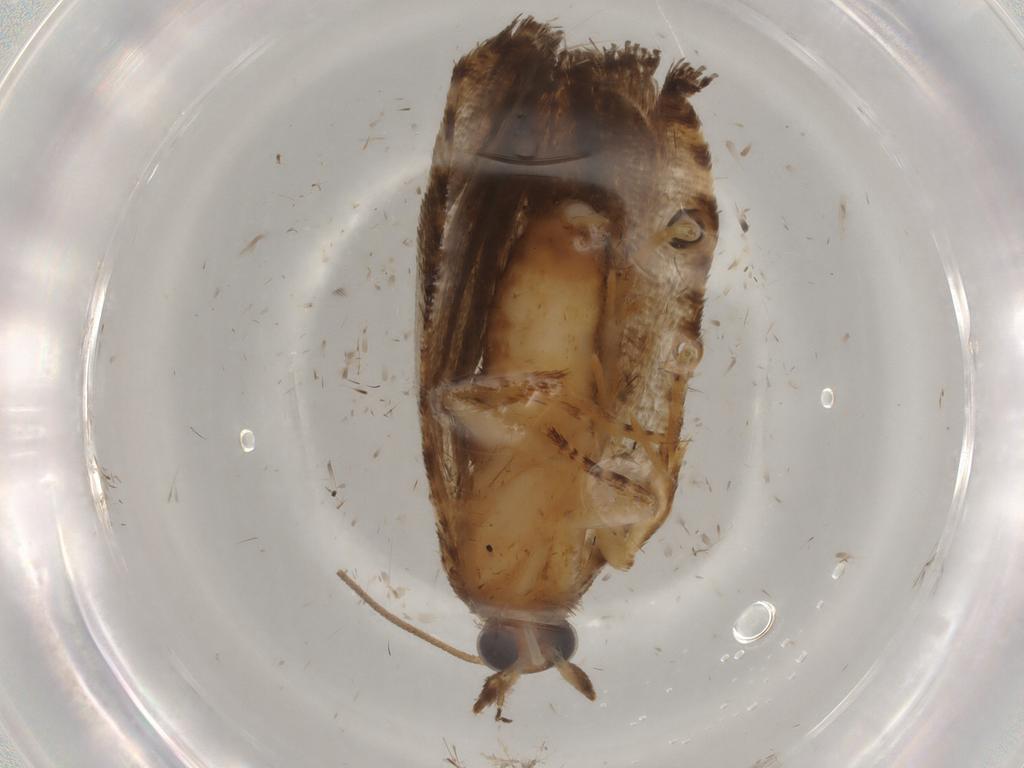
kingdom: Animalia
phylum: Arthropoda
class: Insecta
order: Lepidoptera
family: Tortricidae
